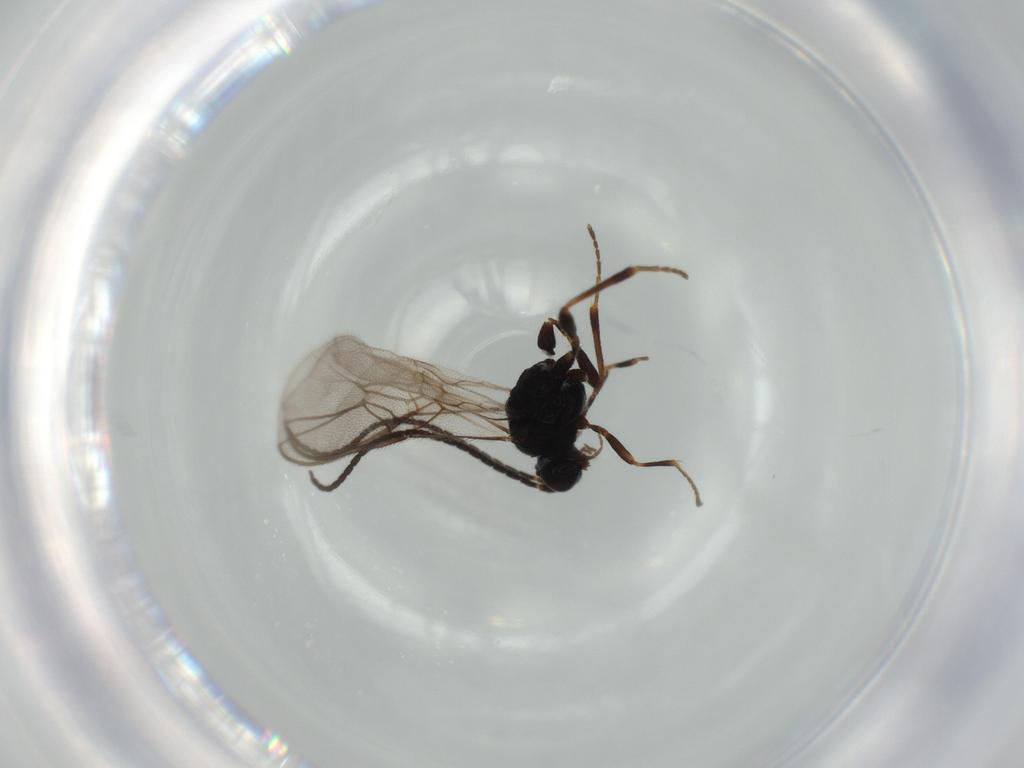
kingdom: Animalia
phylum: Arthropoda
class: Insecta
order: Hymenoptera
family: Braconidae
